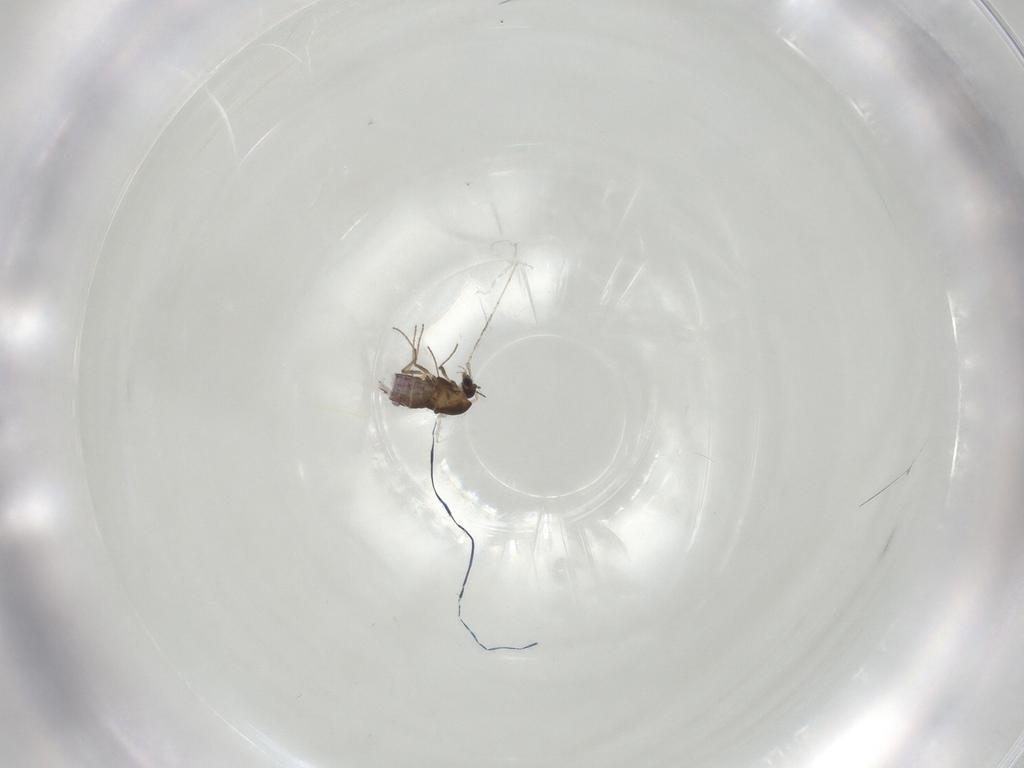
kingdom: Animalia
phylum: Arthropoda
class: Insecta
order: Diptera
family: Chironomidae
